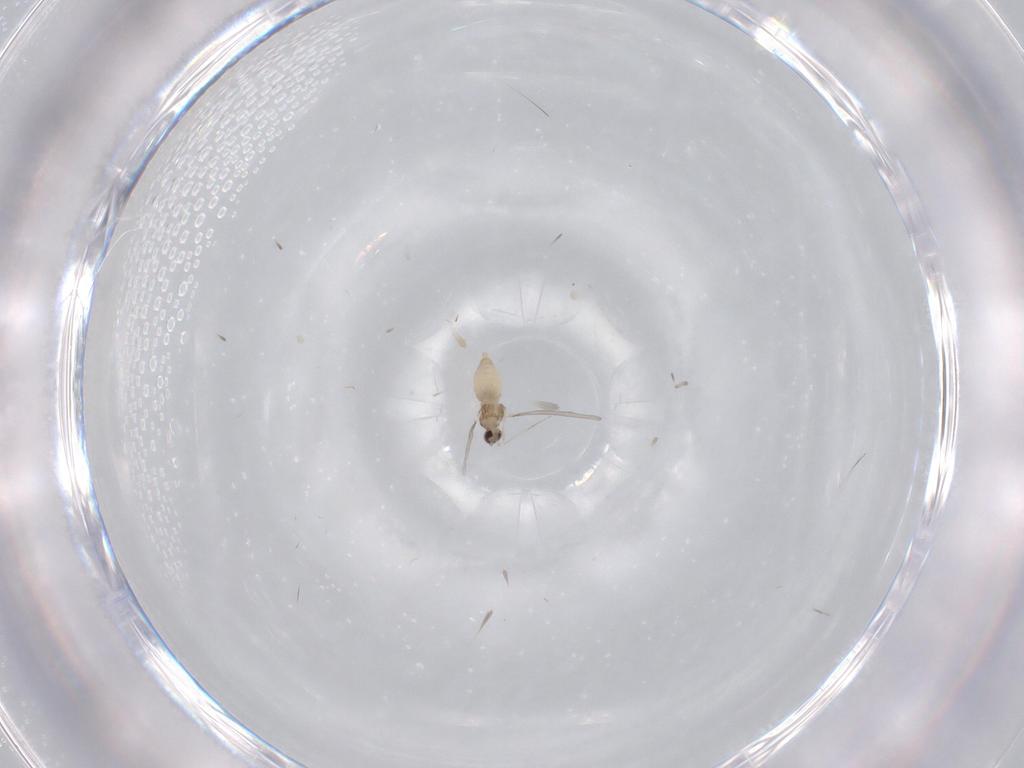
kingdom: Animalia
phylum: Arthropoda
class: Insecta
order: Diptera
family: Cecidomyiidae
